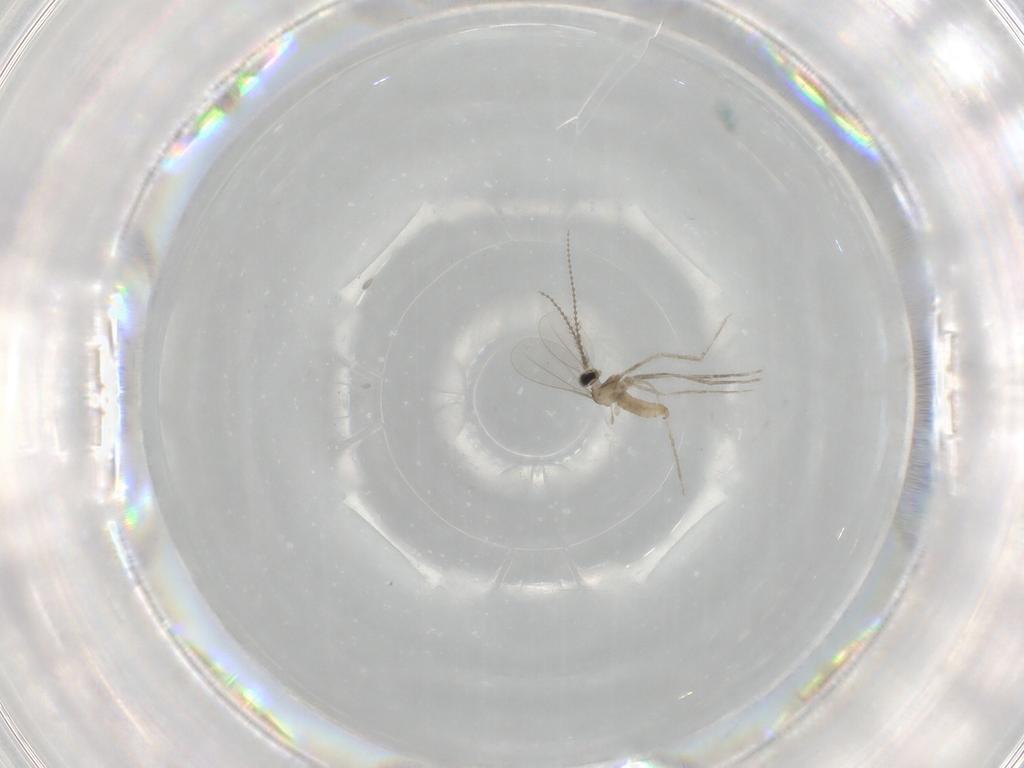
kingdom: Animalia
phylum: Arthropoda
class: Insecta
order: Diptera
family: Cecidomyiidae
